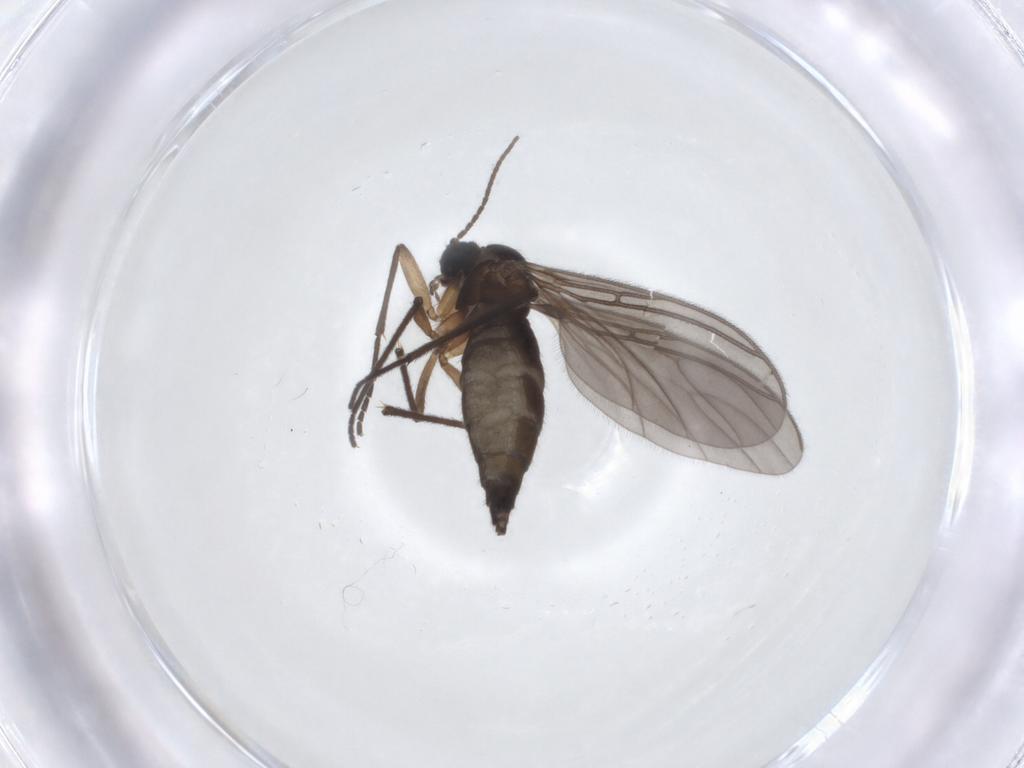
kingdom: Animalia
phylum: Arthropoda
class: Insecta
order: Diptera
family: Sciaridae
